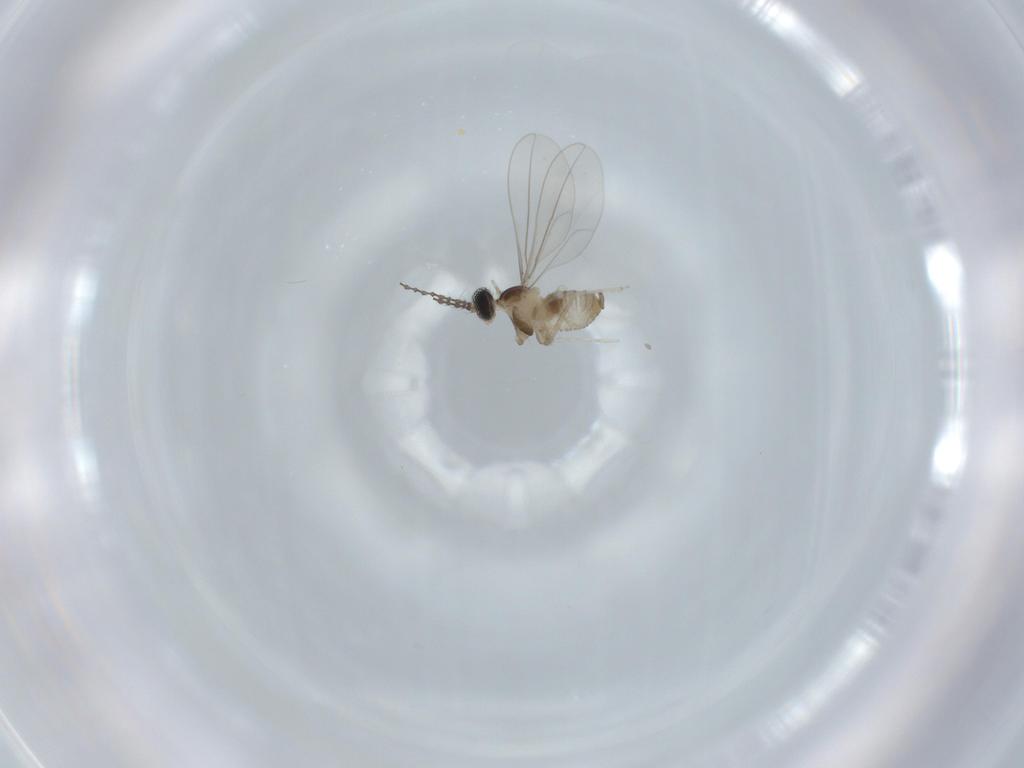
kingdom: Animalia
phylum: Arthropoda
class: Insecta
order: Diptera
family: Cecidomyiidae
